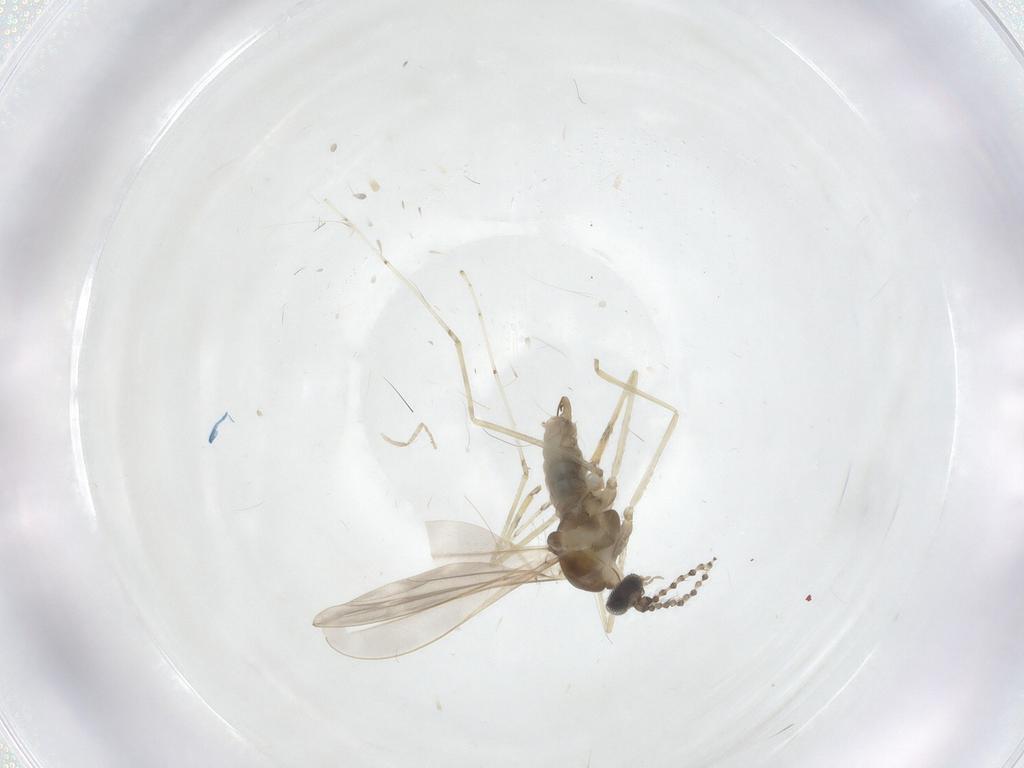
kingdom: Animalia
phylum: Arthropoda
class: Insecta
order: Diptera
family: Cecidomyiidae
